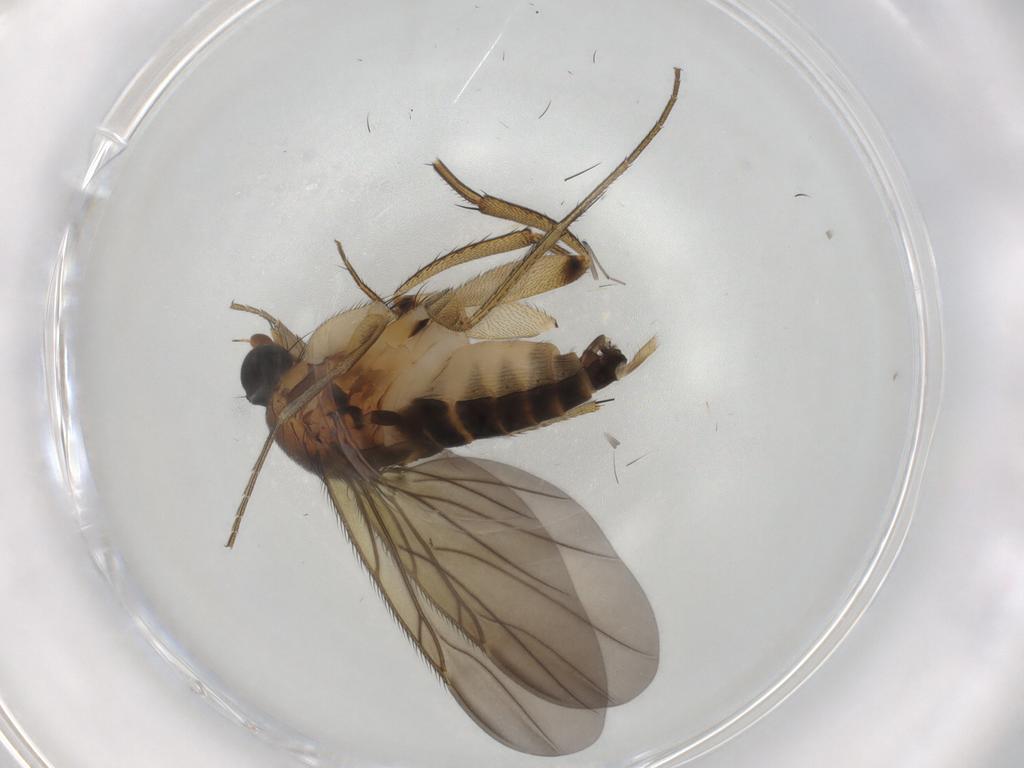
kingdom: Animalia
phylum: Arthropoda
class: Insecta
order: Diptera
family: Phoridae
